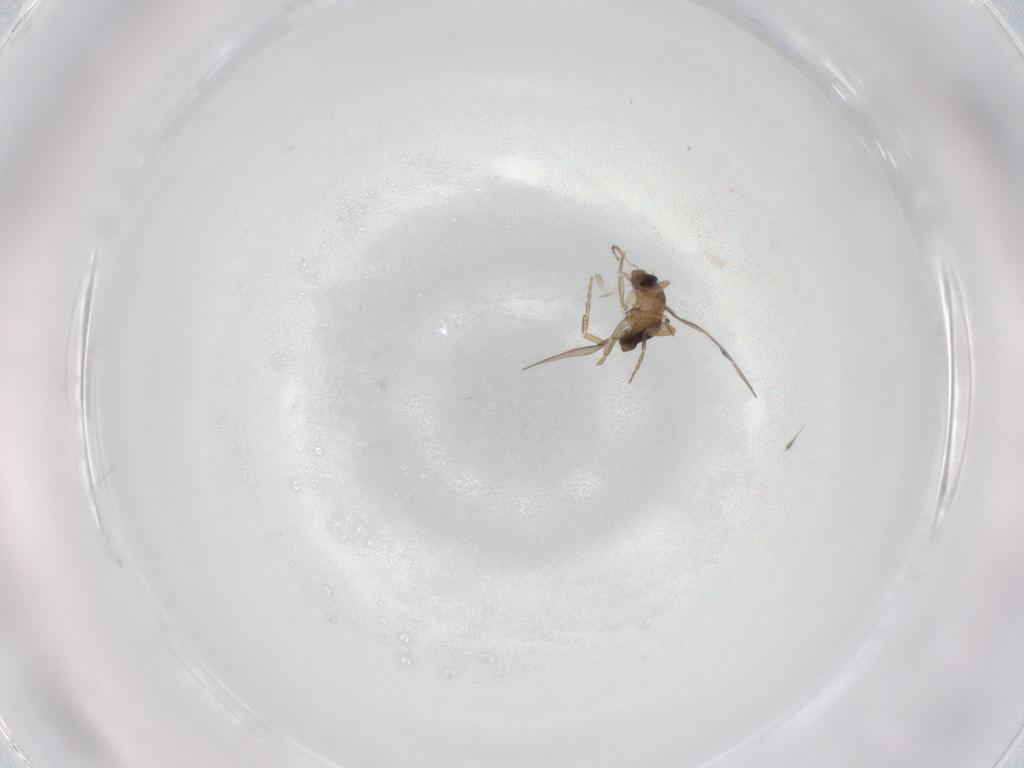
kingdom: Animalia
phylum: Arthropoda
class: Insecta
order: Diptera
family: Phoridae
